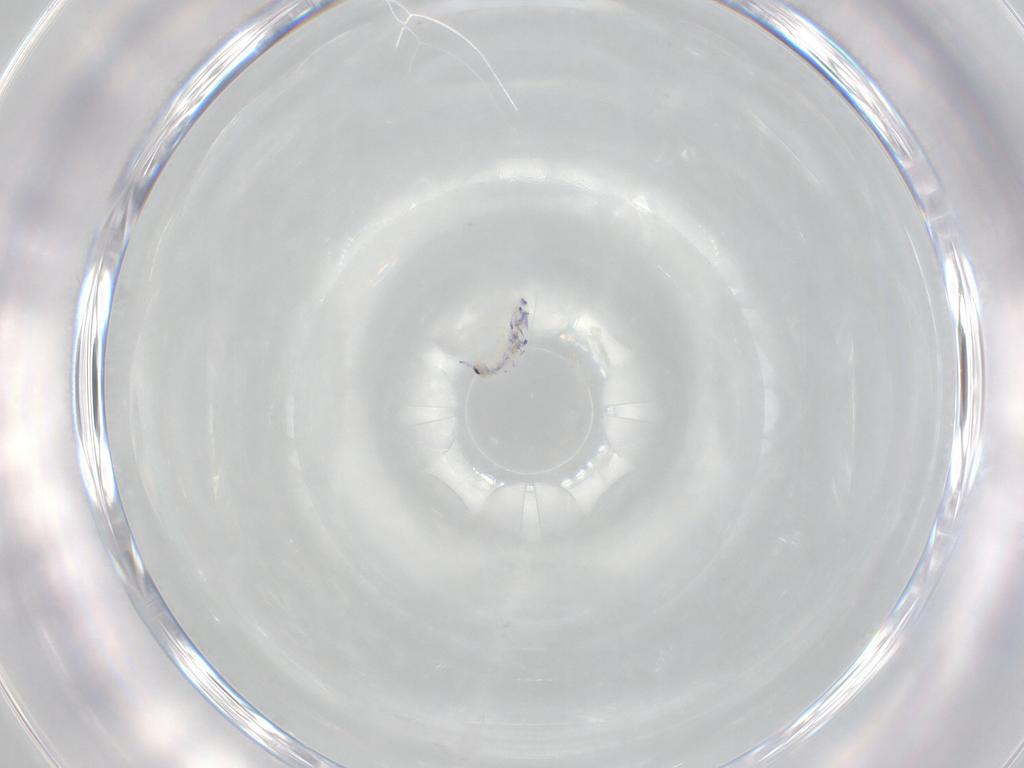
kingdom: Animalia
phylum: Arthropoda
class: Collembola
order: Entomobryomorpha
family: Entomobryidae
